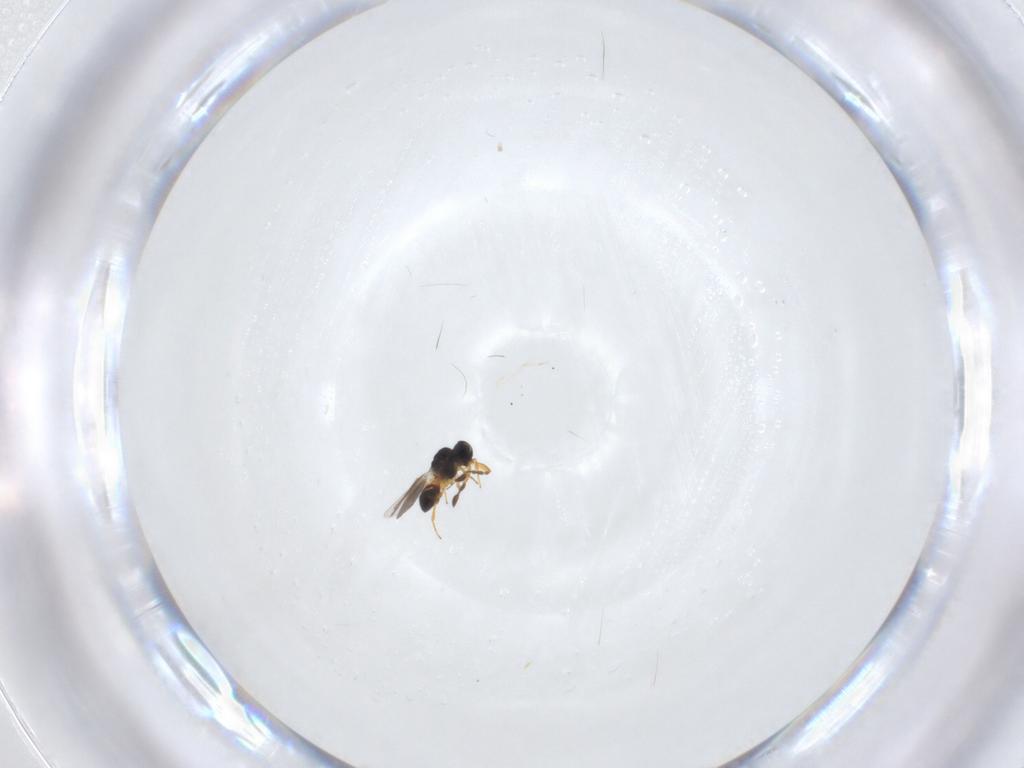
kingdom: Animalia
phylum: Arthropoda
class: Insecta
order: Hymenoptera
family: Platygastridae
